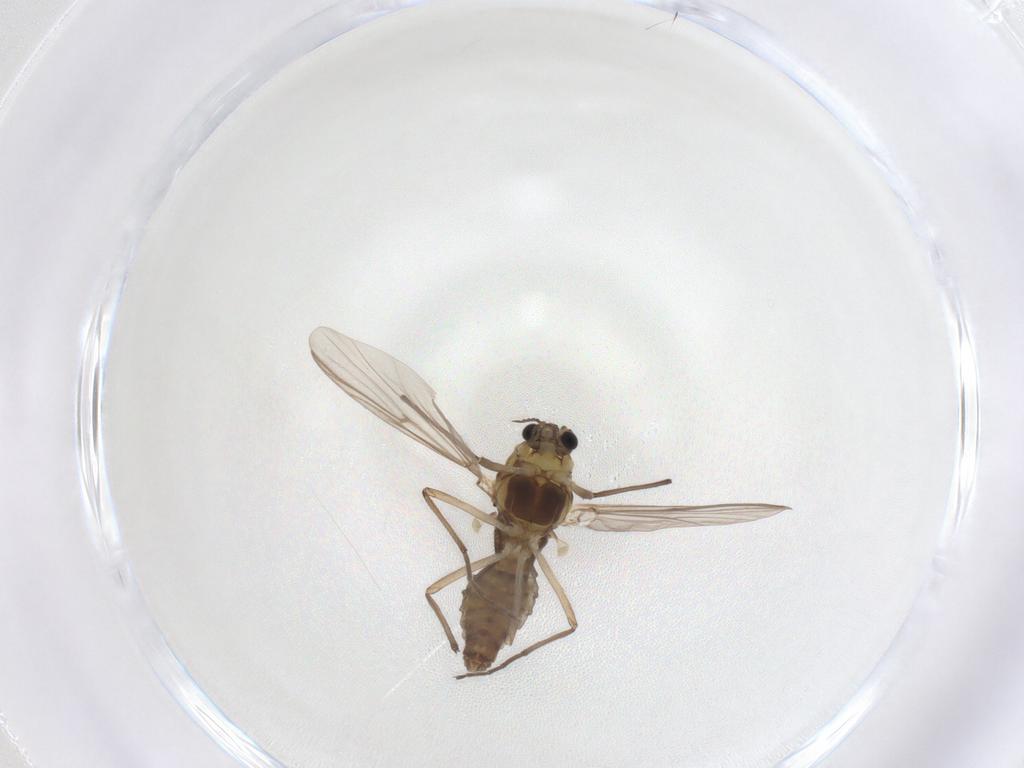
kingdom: Animalia
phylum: Arthropoda
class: Insecta
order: Diptera
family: Chironomidae
